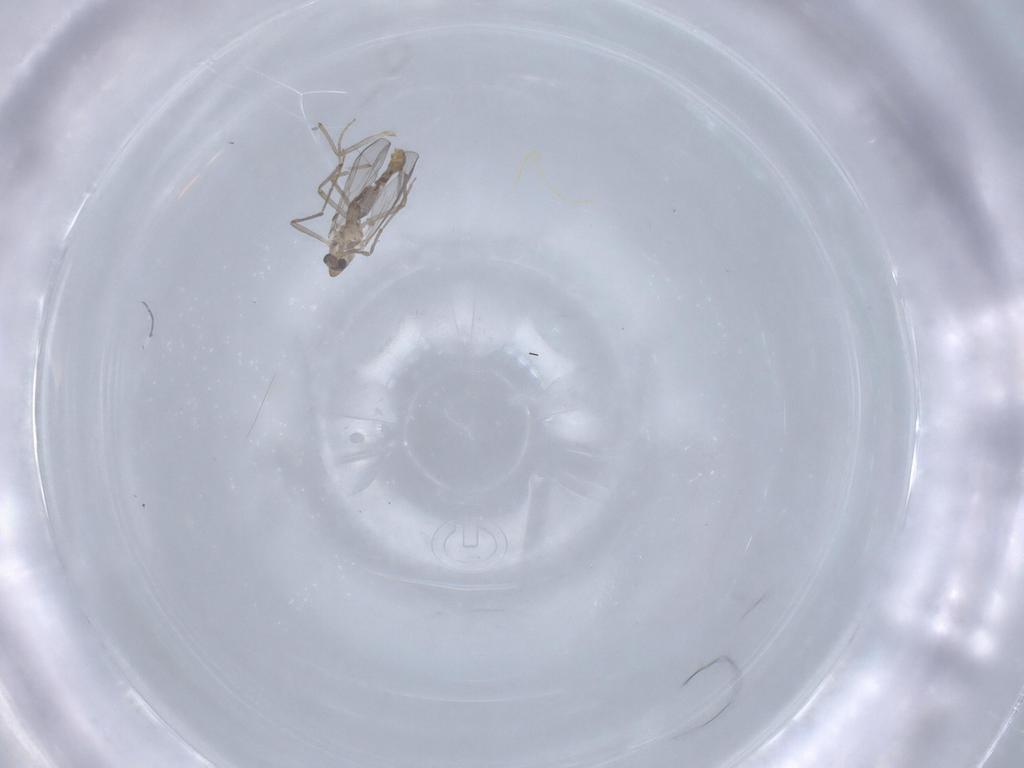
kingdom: Animalia
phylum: Arthropoda
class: Insecta
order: Diptera
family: Chironomidae
